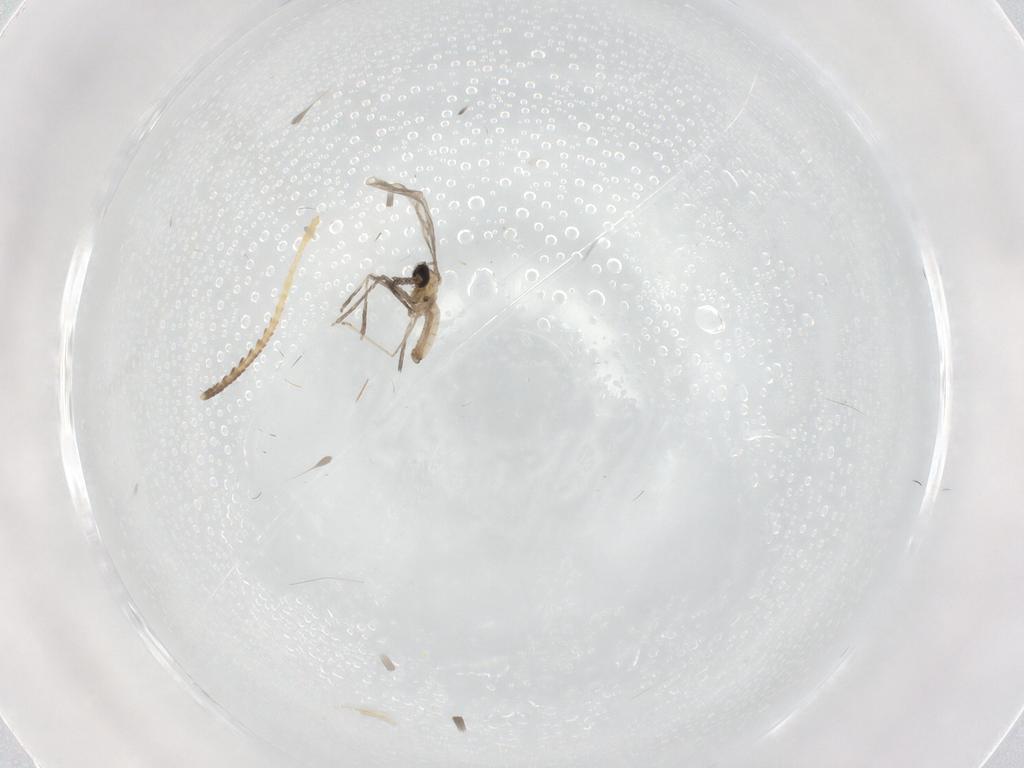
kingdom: Animalia
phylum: Arthropoda
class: Insecta
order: Diptera
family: Cecidomyiidae
